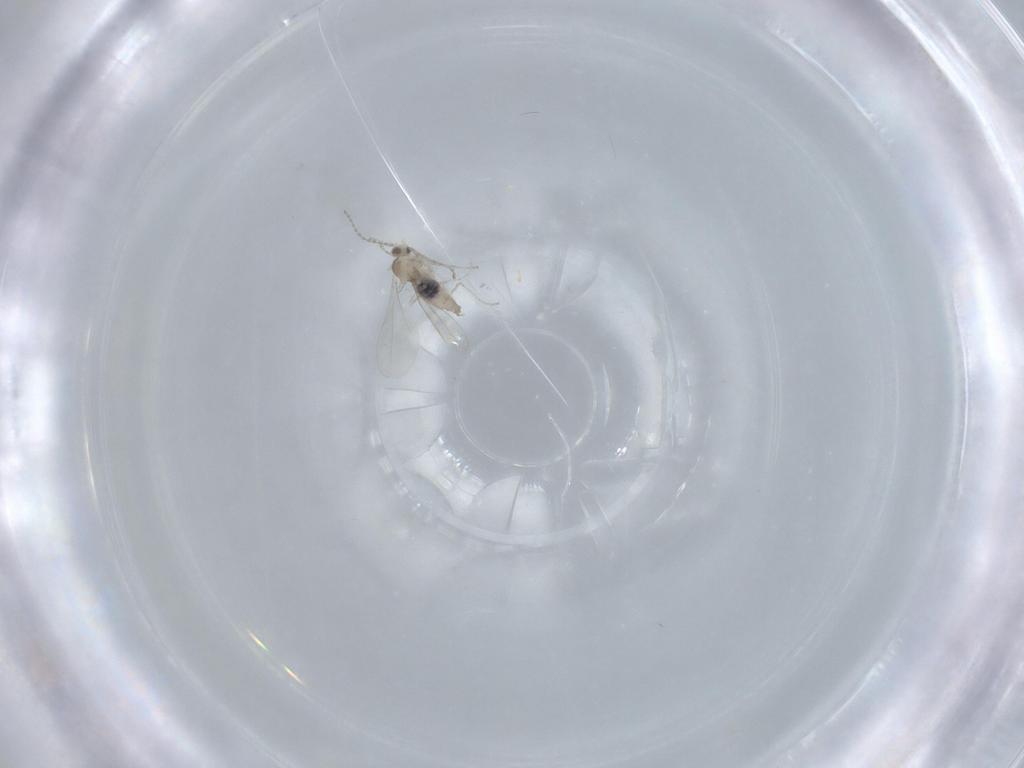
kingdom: Animalia
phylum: Arthropoda
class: Insecta
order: Diptera
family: Cecidomyiidae
